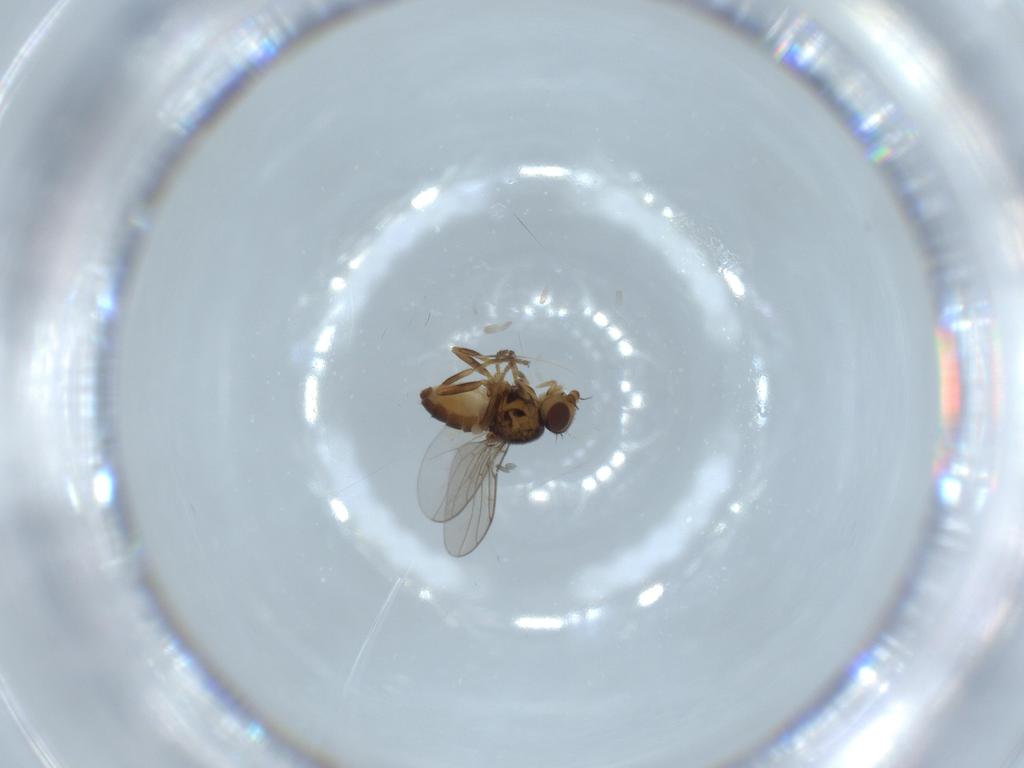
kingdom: Animalia
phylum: Arthropoda
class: Insecta
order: Diptera
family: Chloropidae
